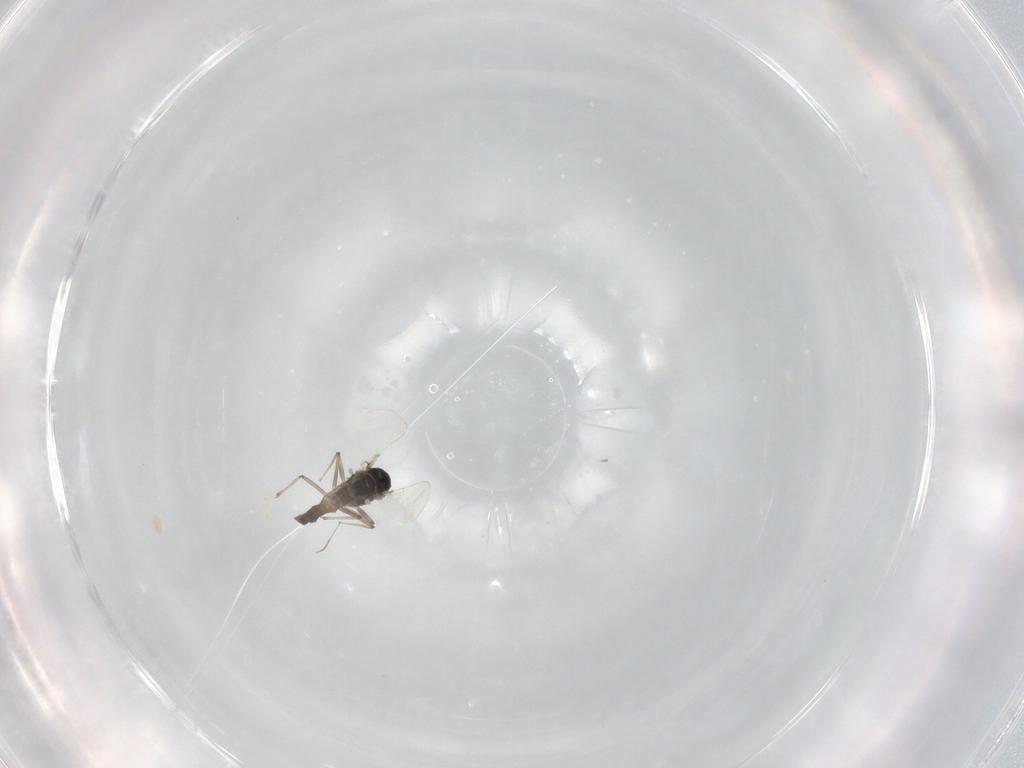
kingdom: Animalia
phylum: Arthropoda
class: Insecta
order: Diptera
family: Chironomidae
